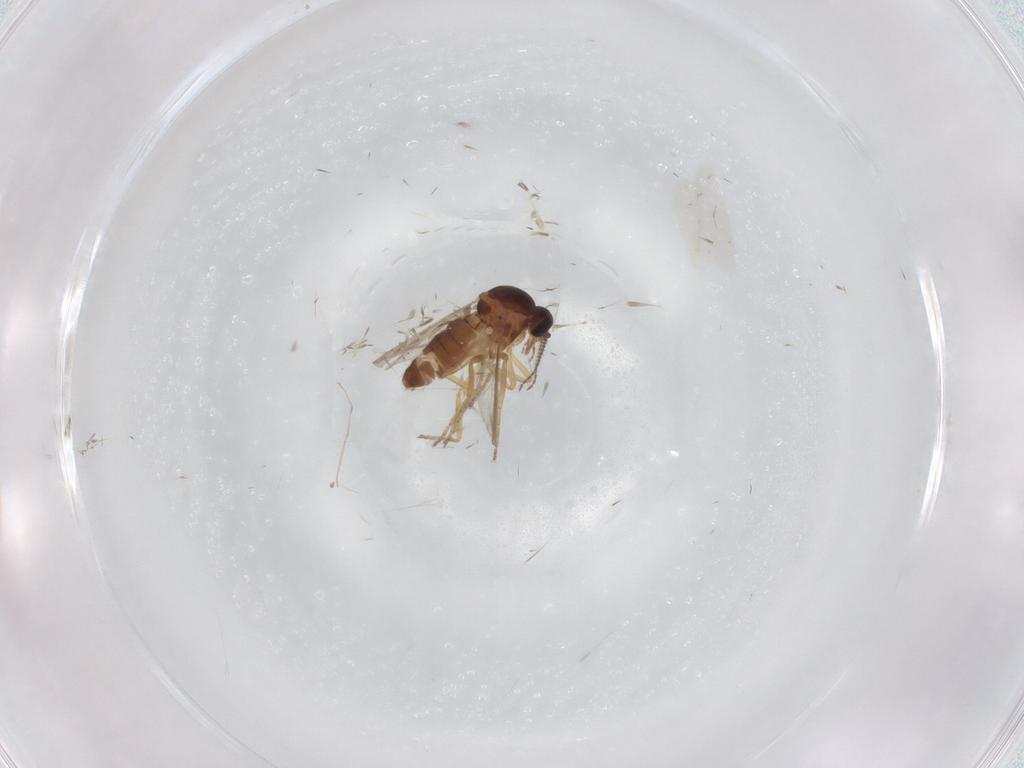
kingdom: Animalia
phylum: Arthropoda
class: Insecta
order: Diptera
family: Ceratopogonidae
